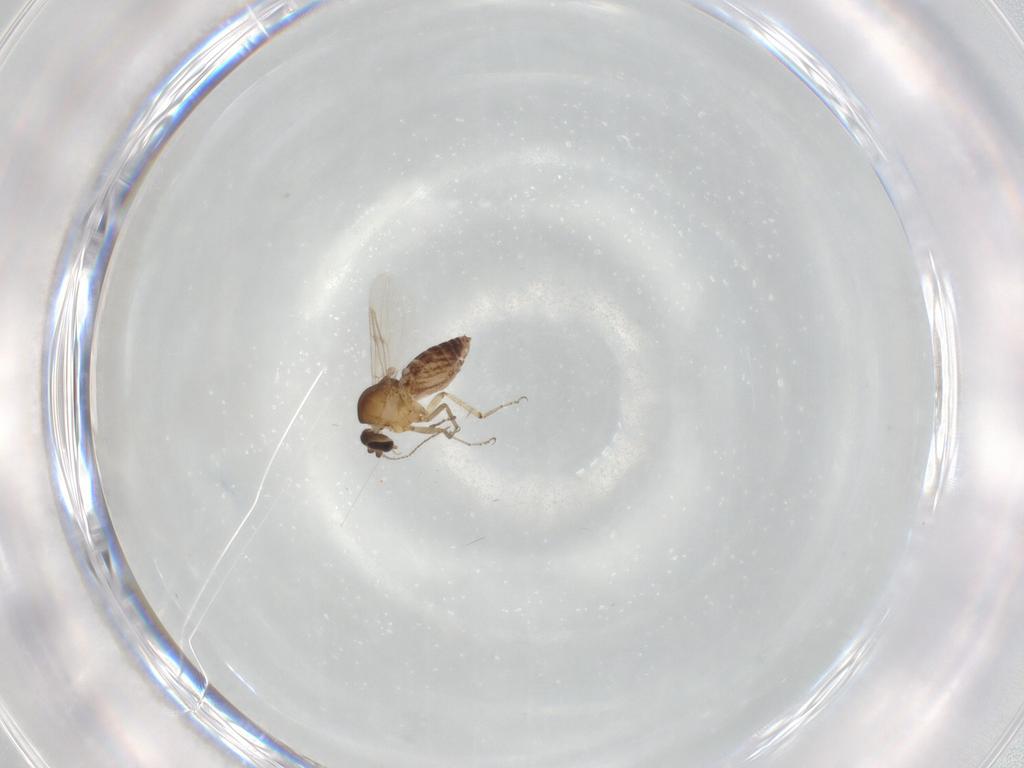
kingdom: Animalia
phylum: Arthropoda
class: Insecta
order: Diptera
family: Ceratopogonidae
